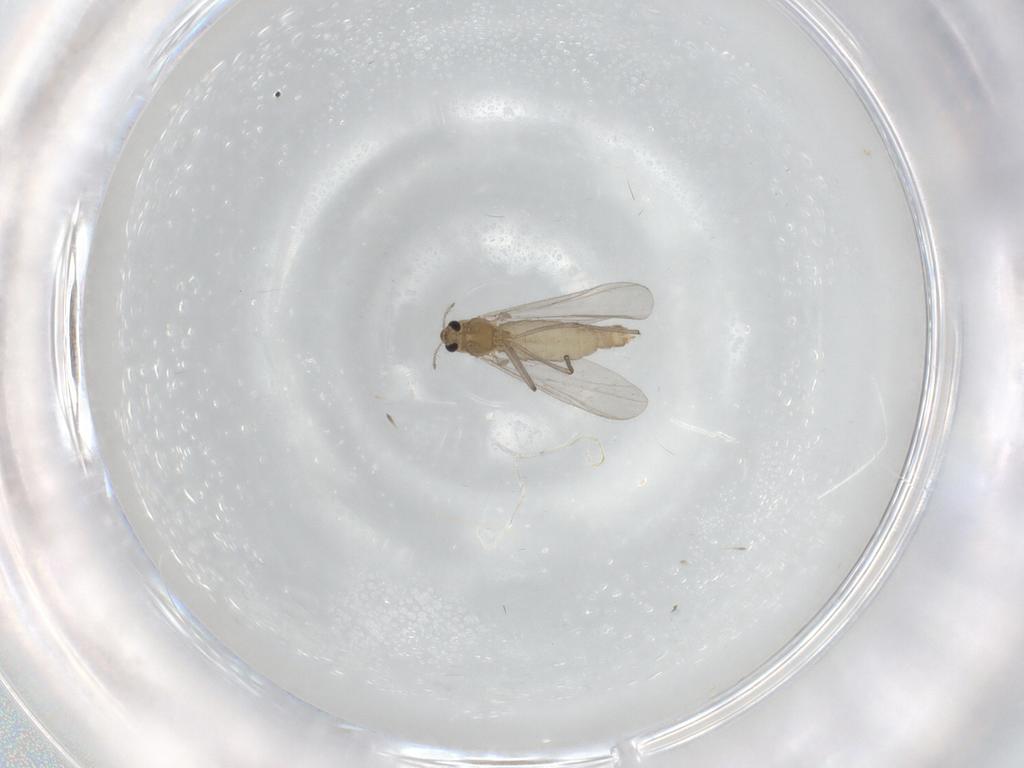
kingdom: Animalia
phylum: Arthropoda
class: Insecta
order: Diptera
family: Chironomidae
